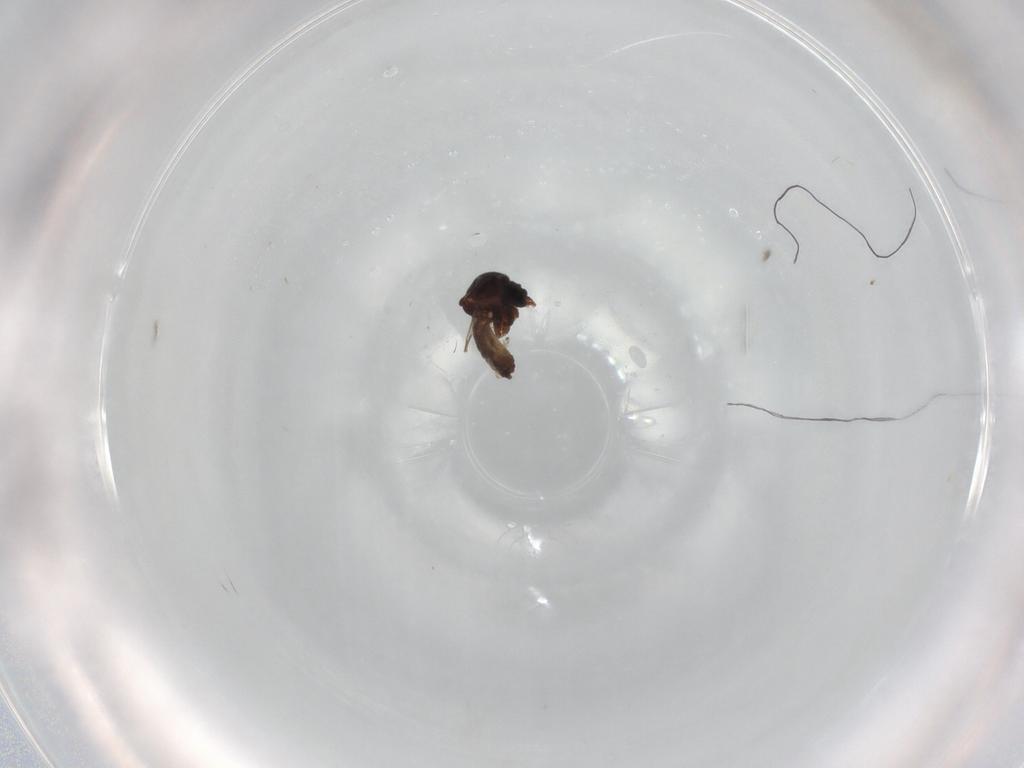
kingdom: Animalia
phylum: Arthropoda
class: Insecta
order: Diptera
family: Ceratopogonidae
